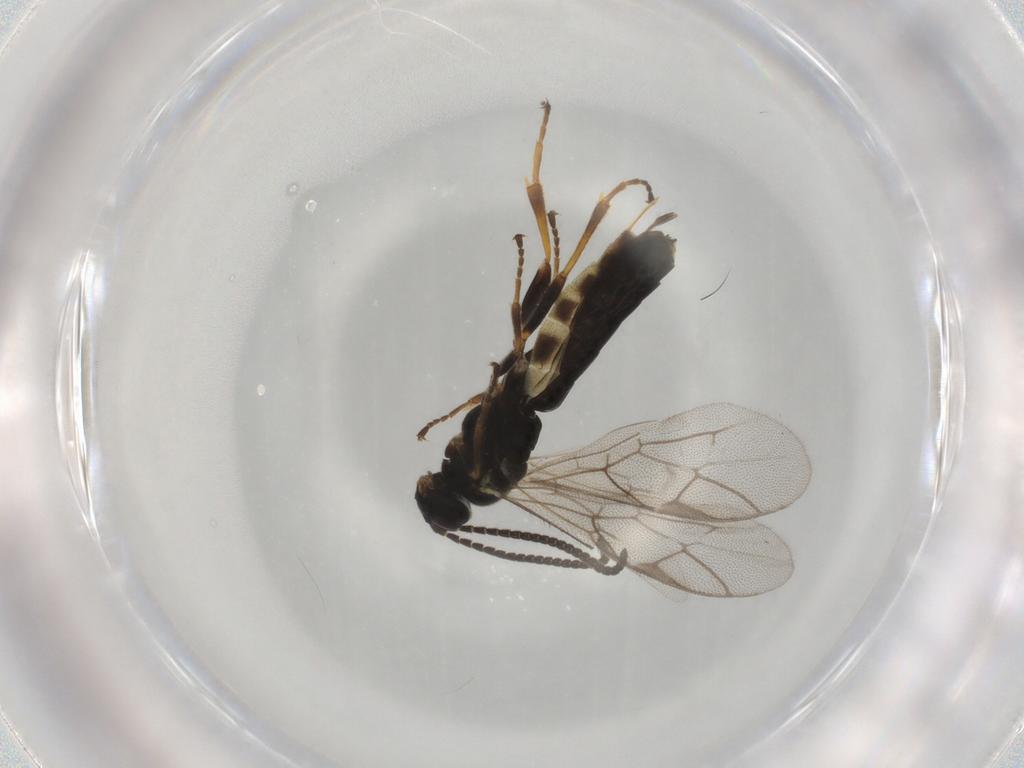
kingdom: Animalia
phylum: Arthropoda
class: Insecta
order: Hymenoptera
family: Ichneumonidae
